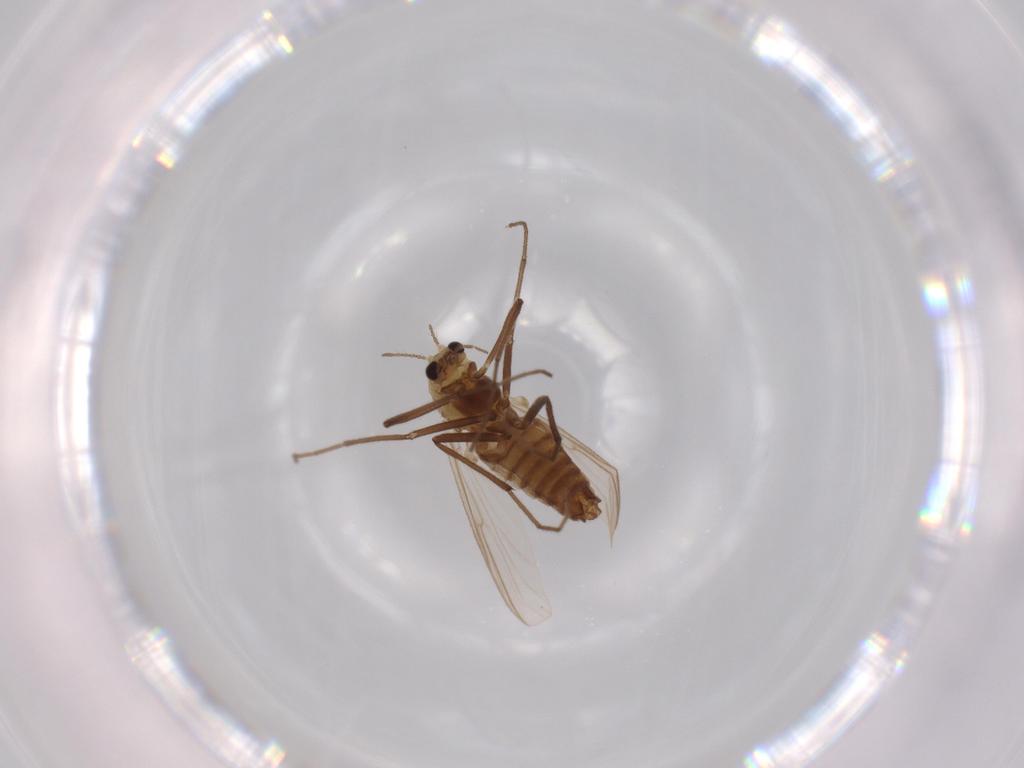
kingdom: Animalia
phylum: Arthropoda
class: Insecta
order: Diptera
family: Chironomidae
